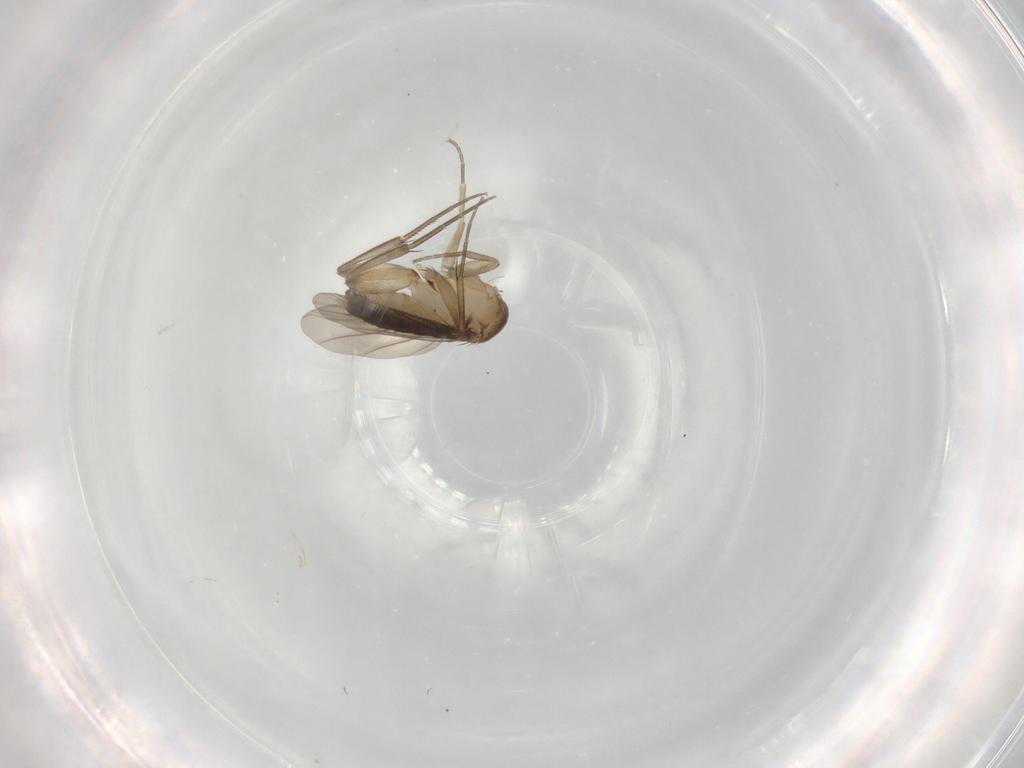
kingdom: Animalia
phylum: Arthropoda
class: Insecta
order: Diptera
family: Phoridae
